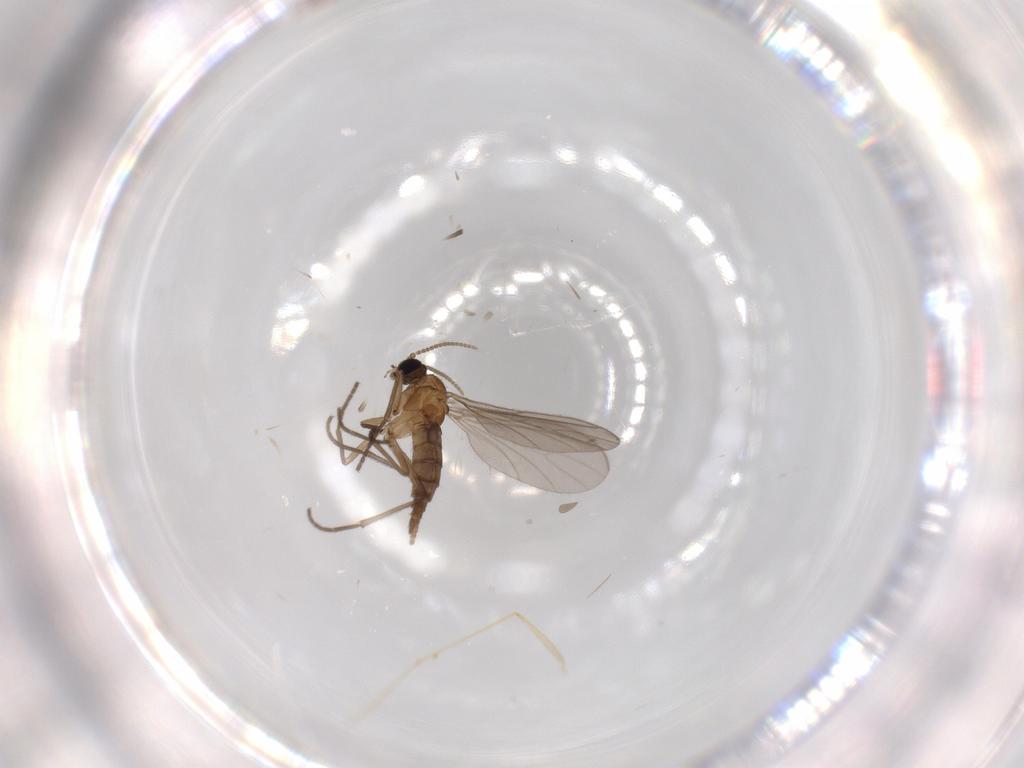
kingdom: Animalia
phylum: Arthropoda
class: Insecta
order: Diptera
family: Sciaridae
